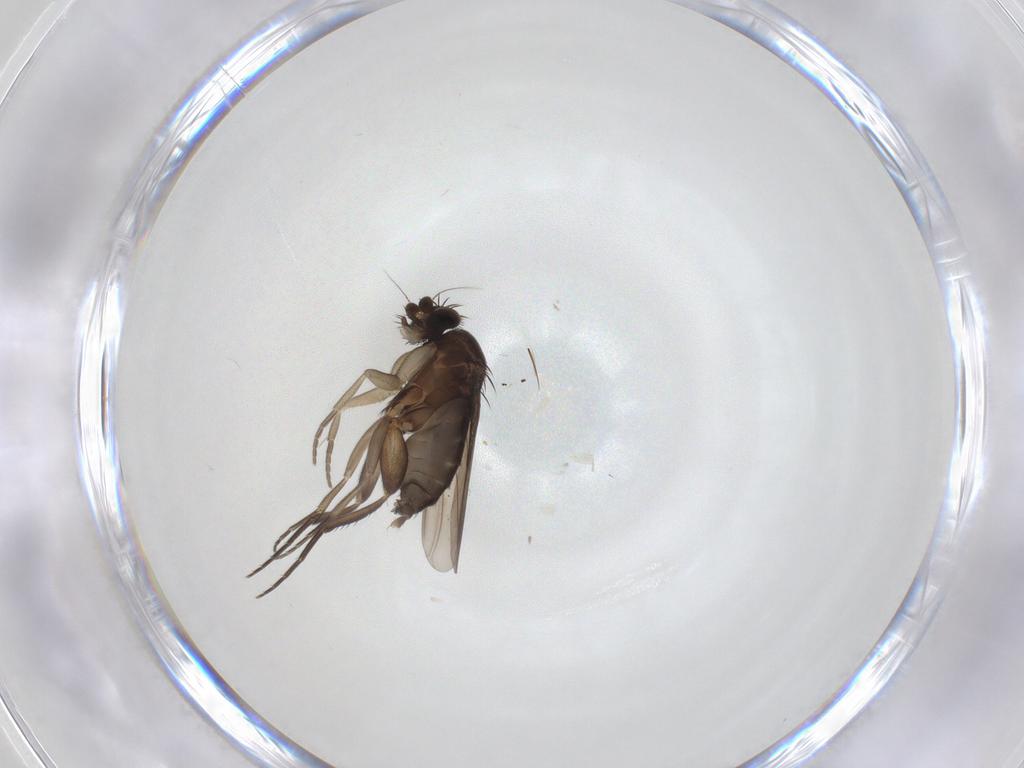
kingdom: Animalia
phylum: Arthropoda
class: Insecta
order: Diptera
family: Phoridae
